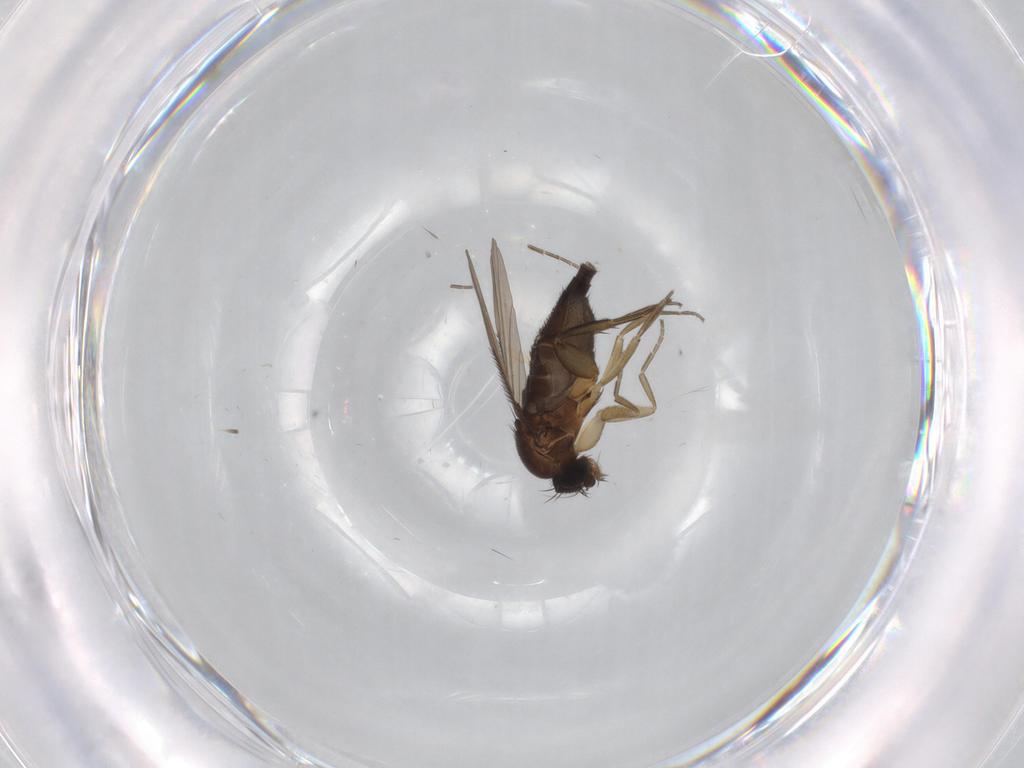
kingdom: Animalia
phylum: Arthropoda
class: Insecta
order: Diptera
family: Phoridae
